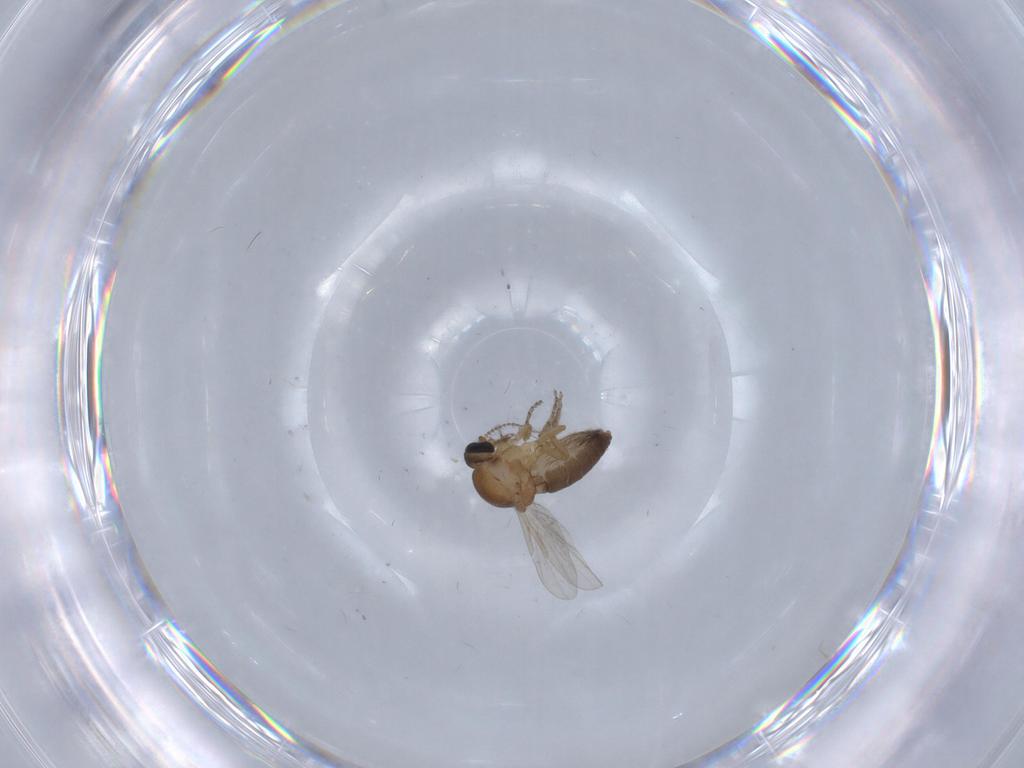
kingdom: Animalia
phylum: Arthropoda
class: Insecta
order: Diptera
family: Ceratopogonidae
